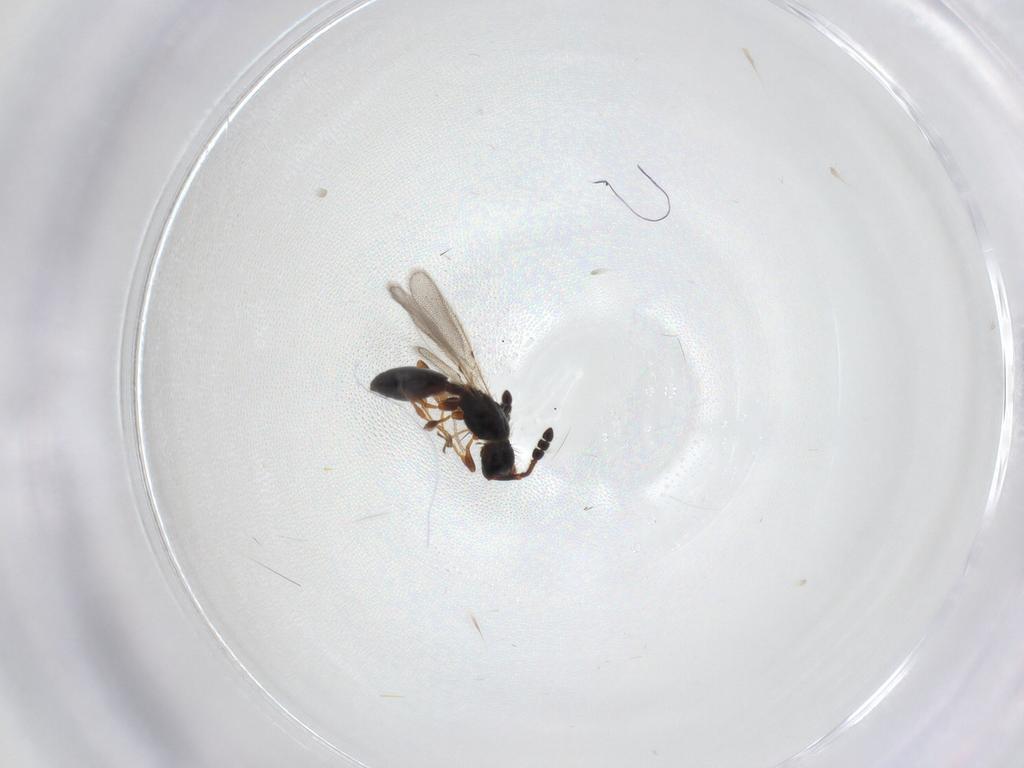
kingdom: Animalia
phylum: Arthropoda
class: Insecta
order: Hymenoptera
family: Diapriidae
